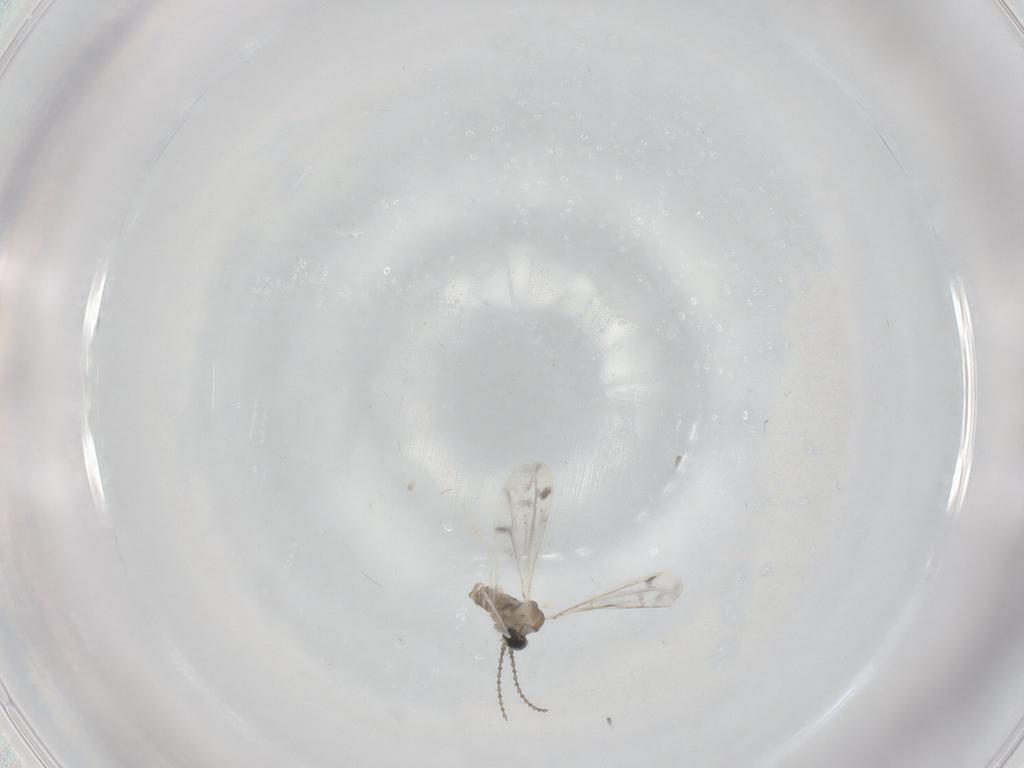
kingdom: Animalia
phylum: Arthropoda
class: Insecta
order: Diptera
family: Cecidomyiidae
